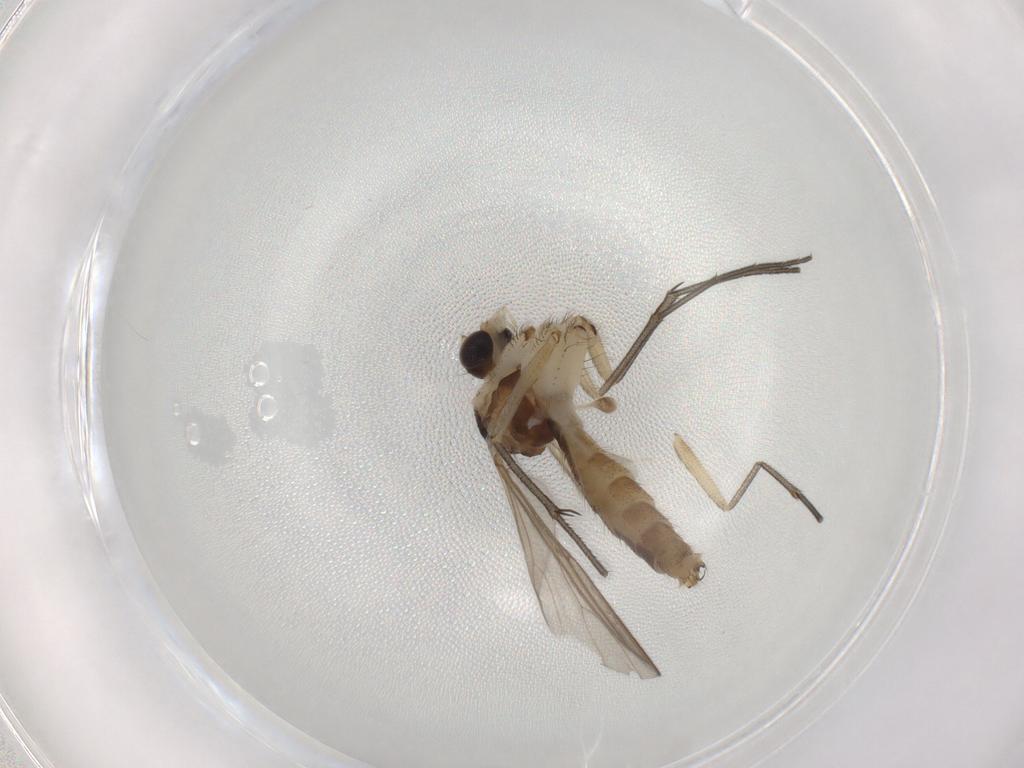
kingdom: Animalia
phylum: Arthropoda
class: Insecta
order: Diptera
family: Mycetophilidae
